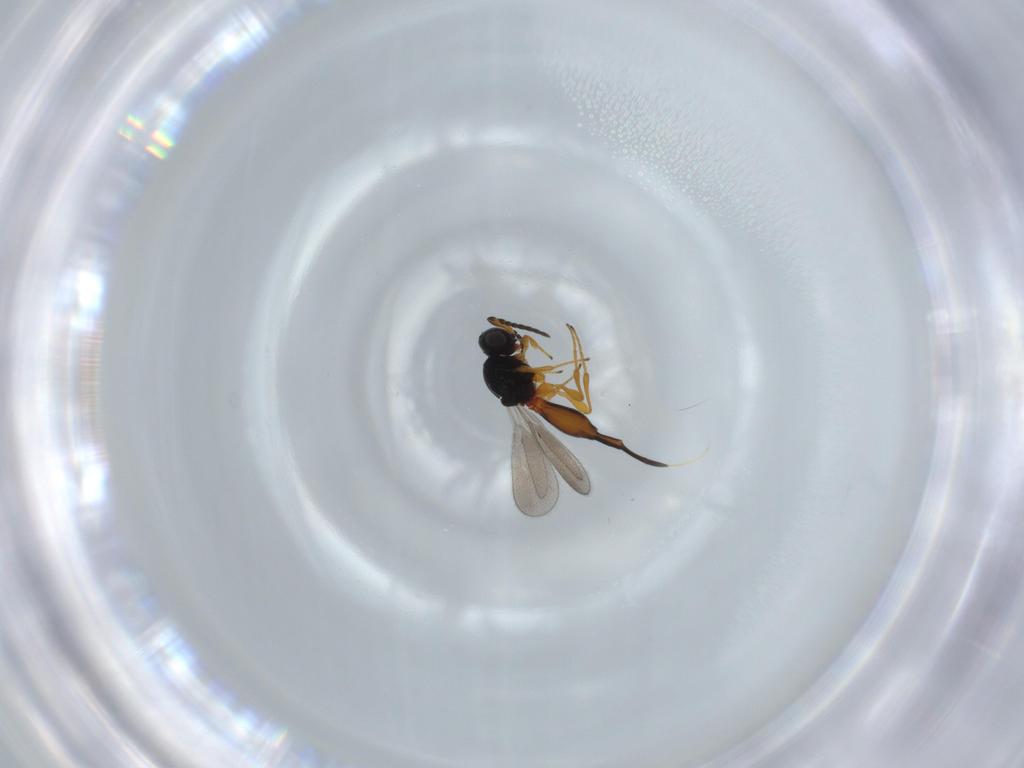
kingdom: Animalia
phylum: Arthropoda
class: Insecta
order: Hymenoptera
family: Platygastridae
